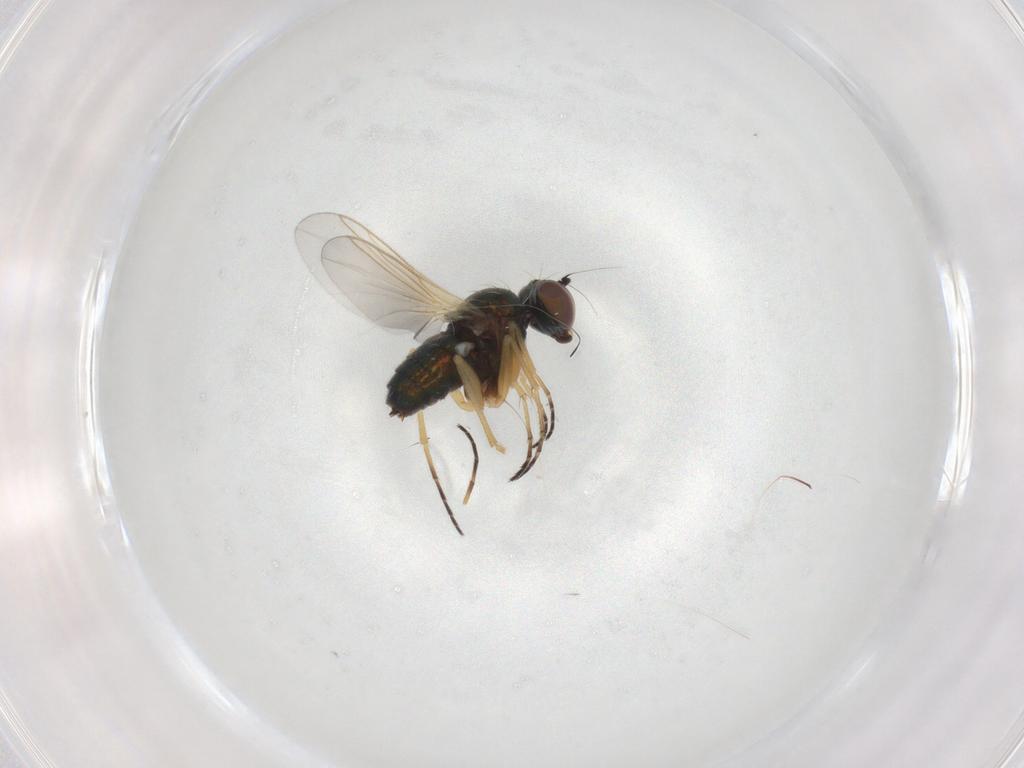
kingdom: Animalia
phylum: Arthropoda
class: Insecta
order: Diptera
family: Dolichopodidae
